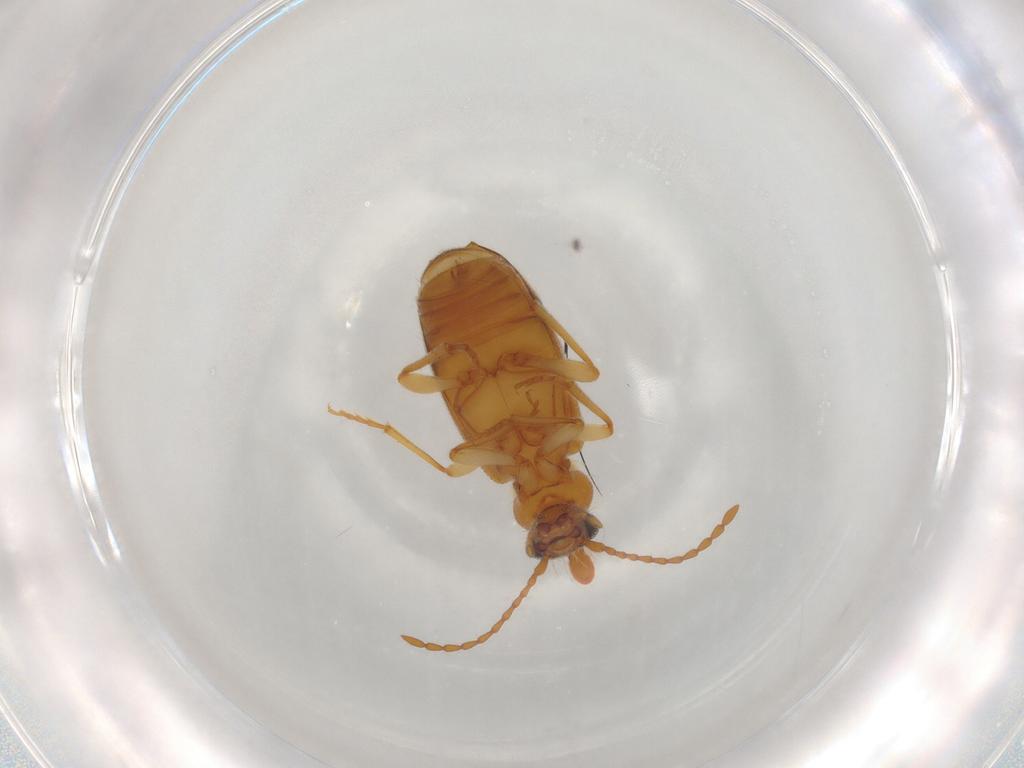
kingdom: Animalia
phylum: Arthropoda
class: Insecta
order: Coleoptera
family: Anthicidae
